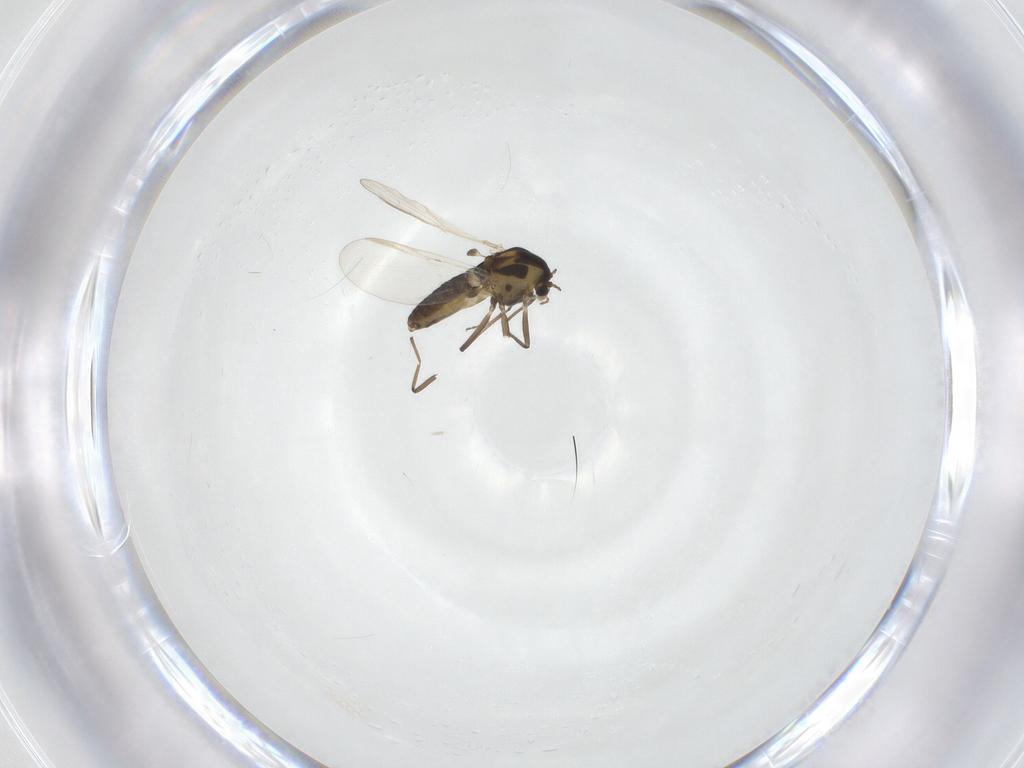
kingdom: Animalia
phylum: Arthropoda
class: Insecta
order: Diptera
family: Chironomidae
